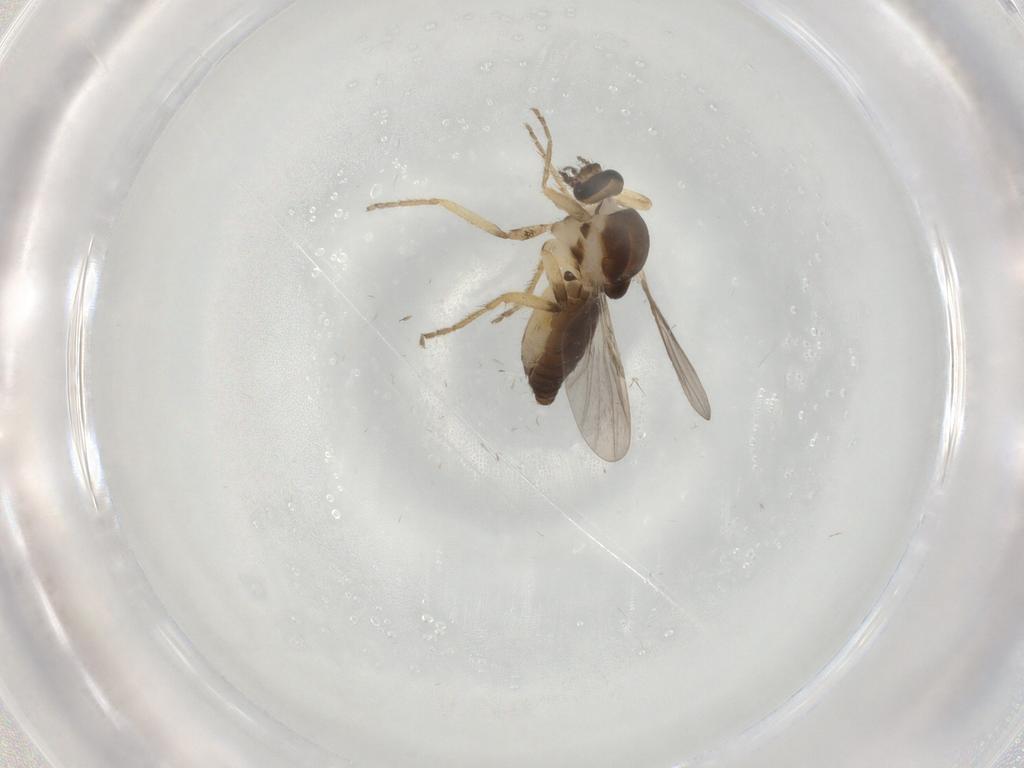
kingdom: Animalia
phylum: Arthropoda
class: Insecta
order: Diptera
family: Ceratopogonidae
